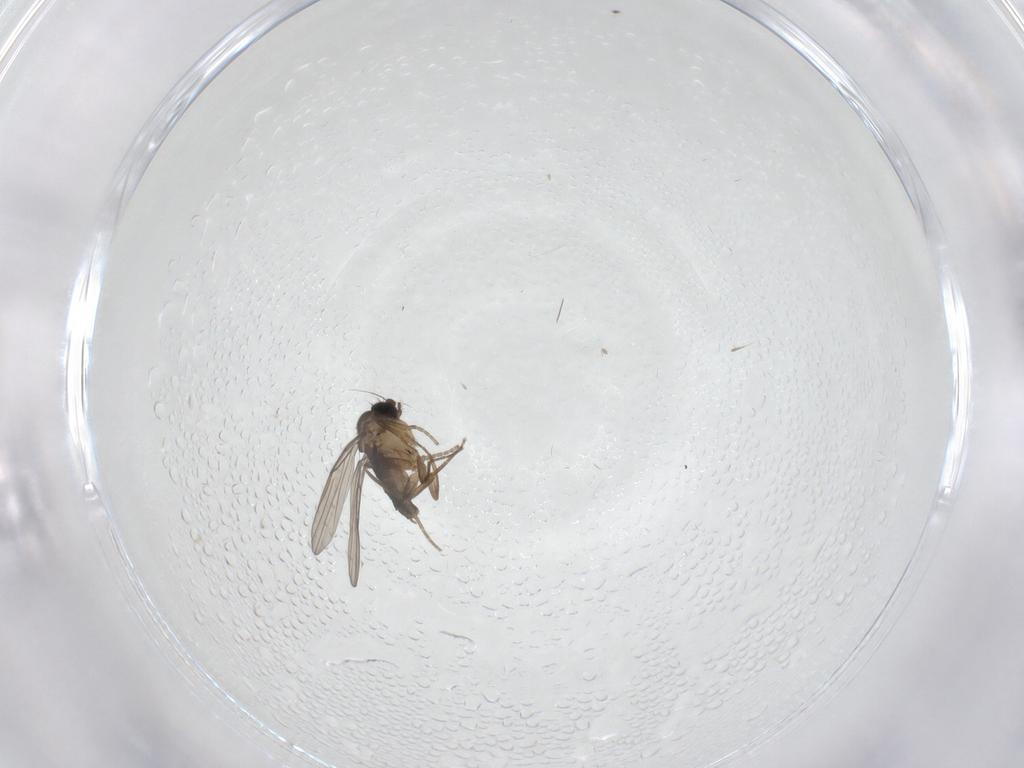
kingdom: Animalia
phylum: Arthropoda
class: Insecta
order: Diptera
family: Phoridae
